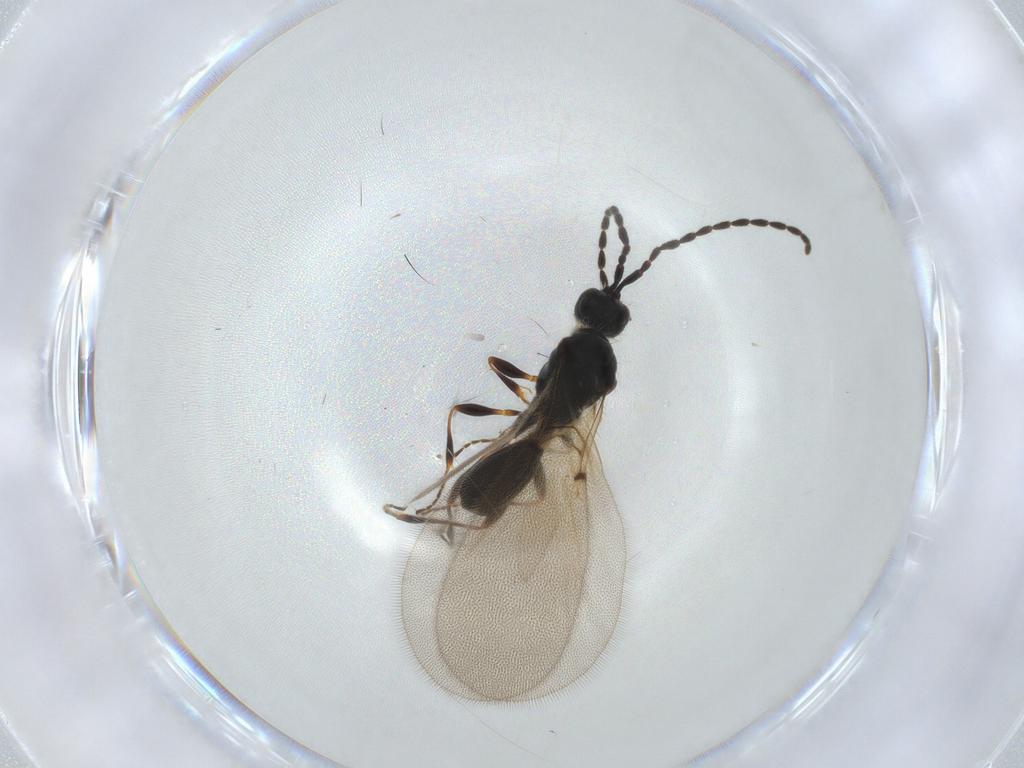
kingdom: Animalia
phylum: Arthropoda
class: Insecta
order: Hymenoptera
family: Diapriidae
